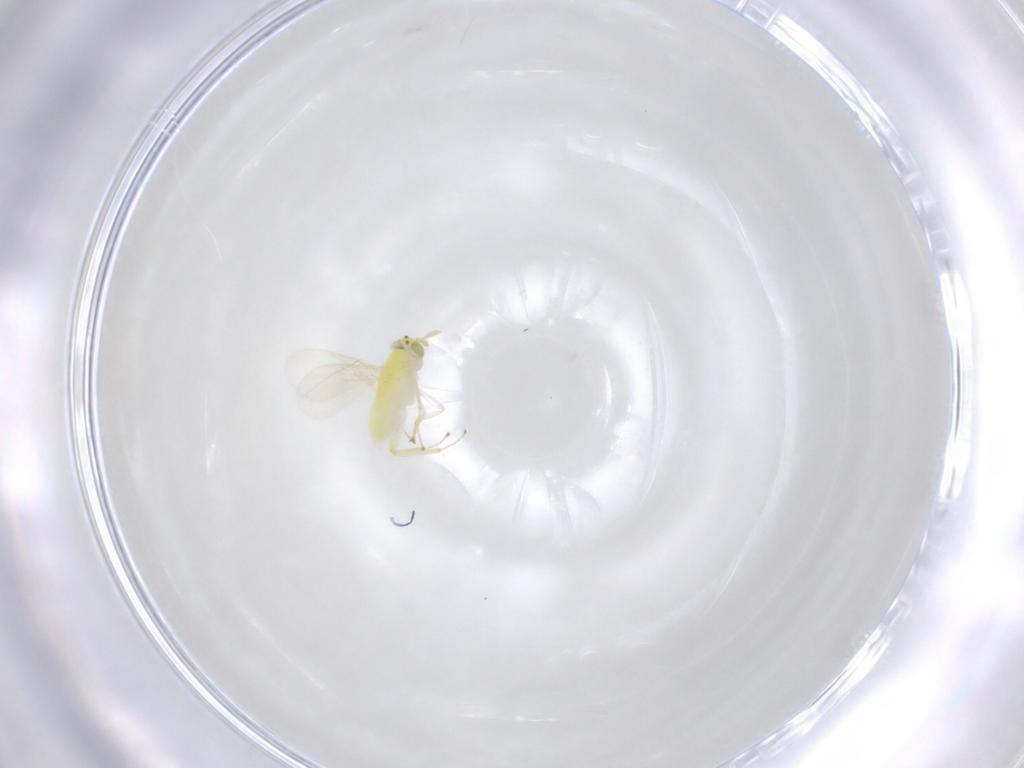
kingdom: Animalia
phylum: Arthropoda
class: Insecta
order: Hymenoptera
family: Aphelinidae
